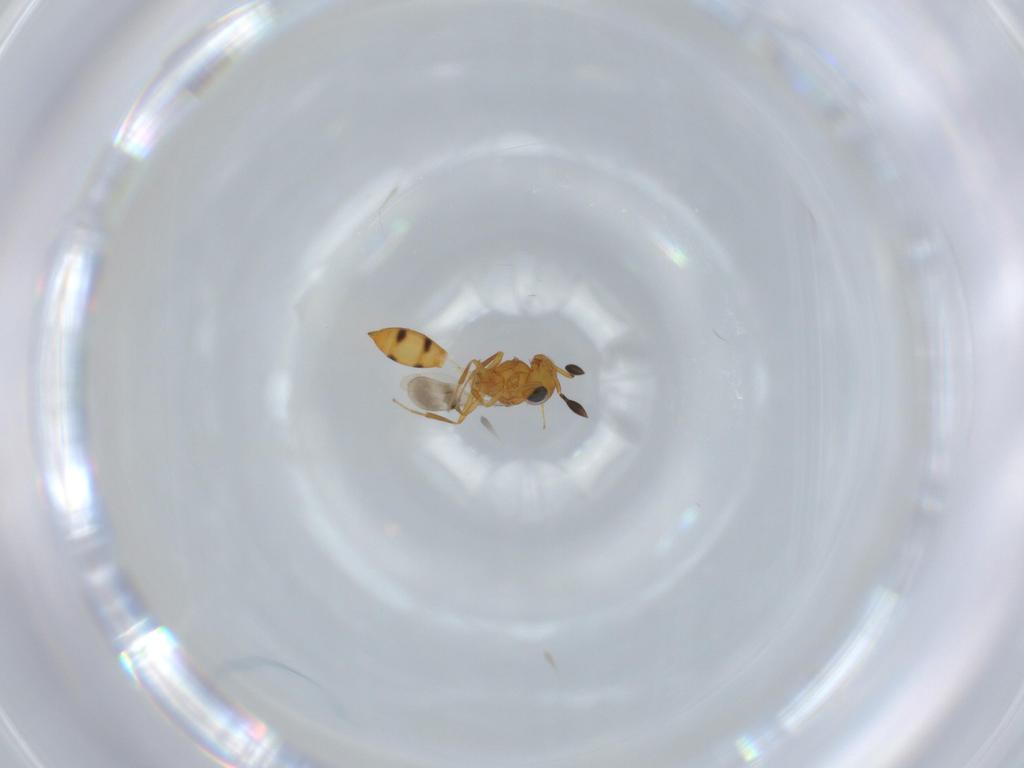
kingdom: Animalia
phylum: Arthropoda
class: Insecta
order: Hymenoptera
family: Scelionidae
